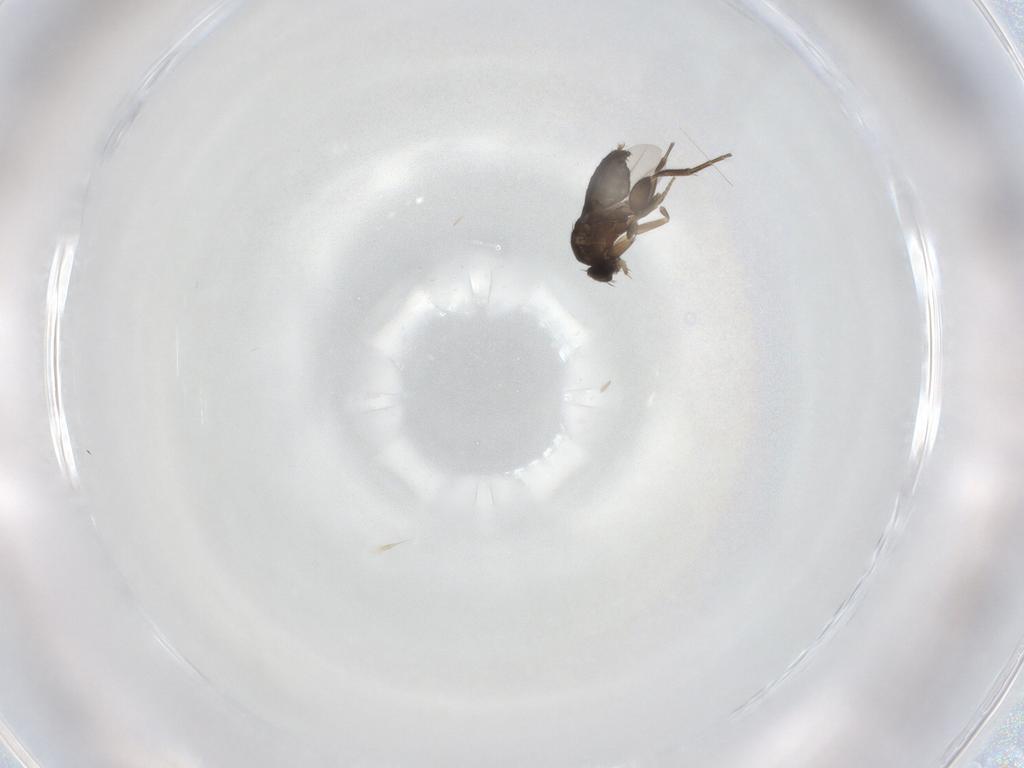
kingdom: Animalia
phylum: Arthropoda
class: Insecta
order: Diptera
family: Phoridae
